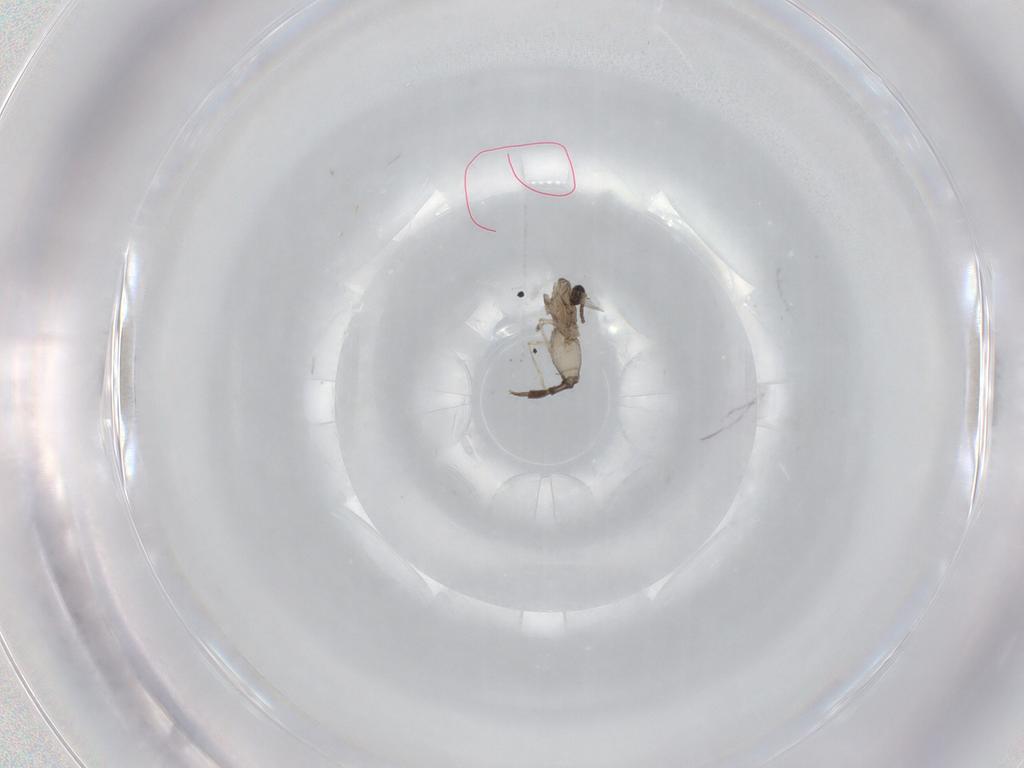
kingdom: Animalia
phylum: Arthropoda
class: Insecta
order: Diptera
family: Cecidomyiidae
